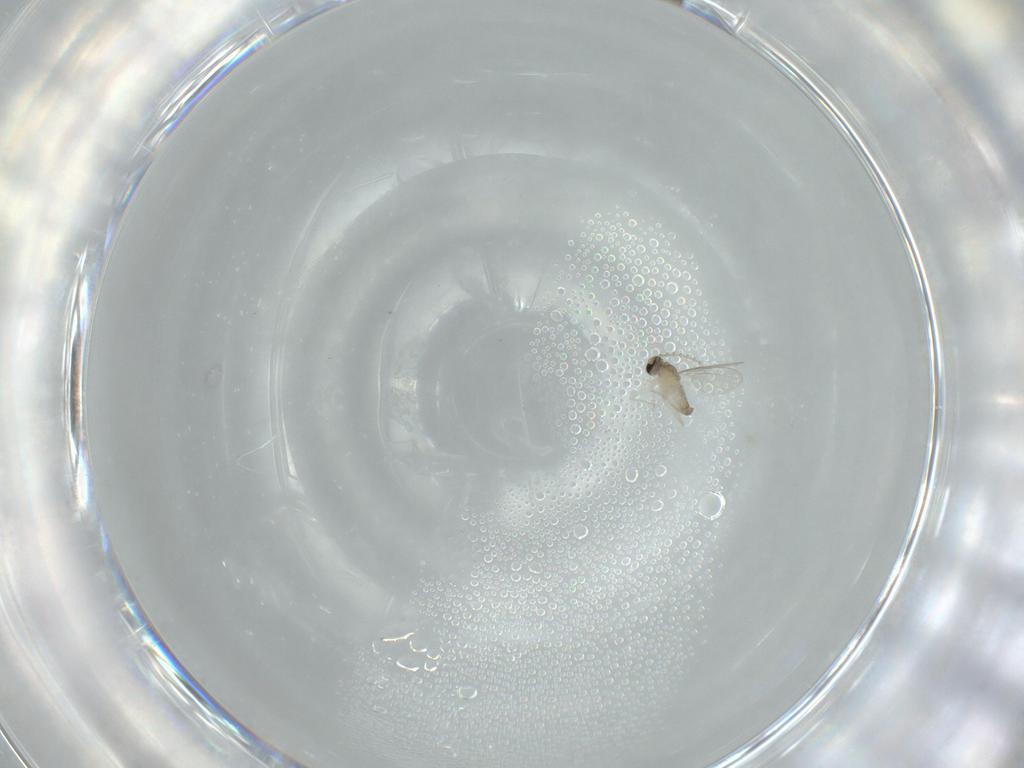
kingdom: Animalia
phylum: Arthropoda
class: Insecta
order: Diptera
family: Cecidomyiidae
